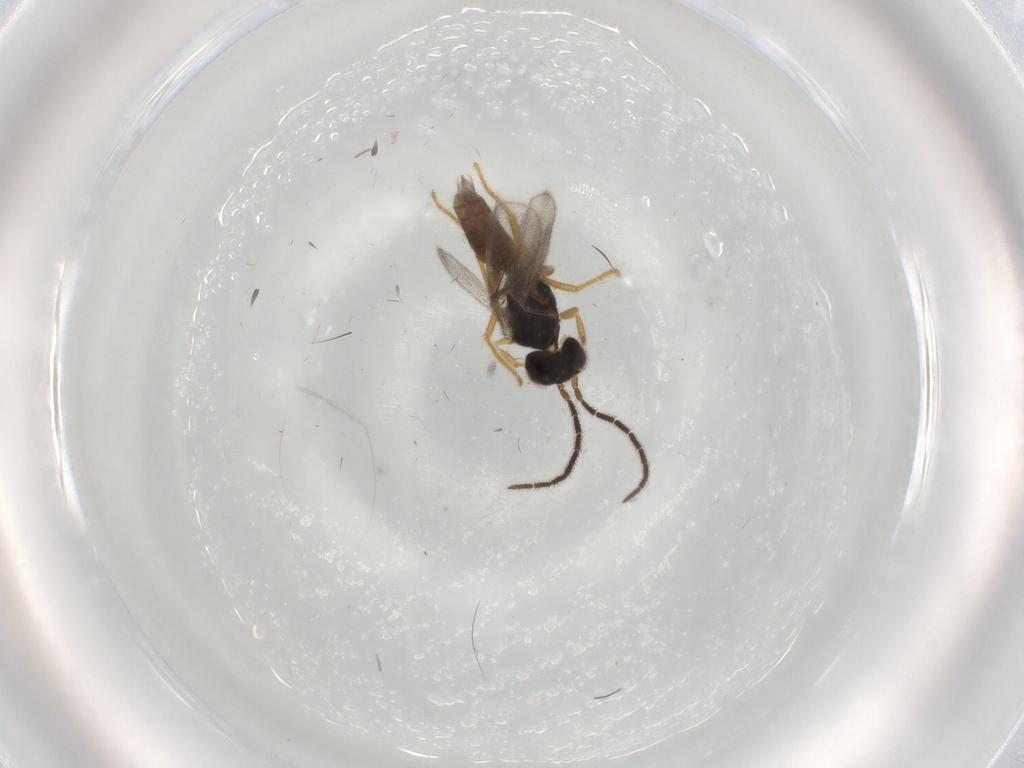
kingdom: Animalia
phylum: Arthropoda
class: Insecta
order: Hymenoptera
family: Dryinidae
